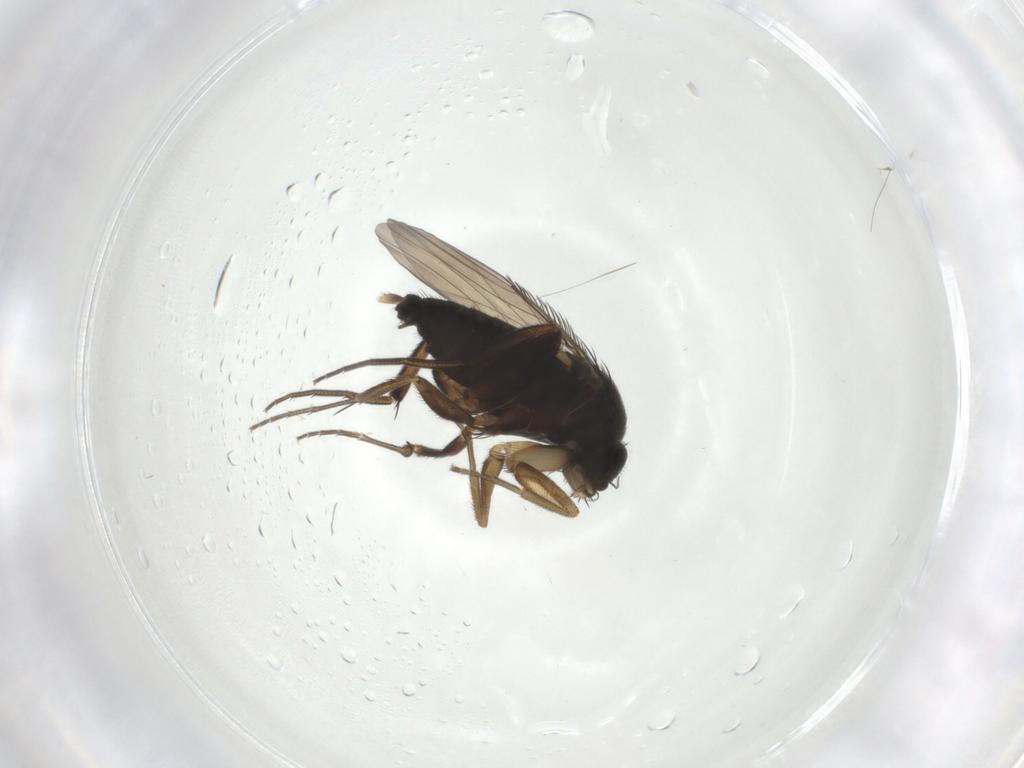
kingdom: Animalia
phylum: Arthropoda
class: Insecta
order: Diptera
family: Phoridae
